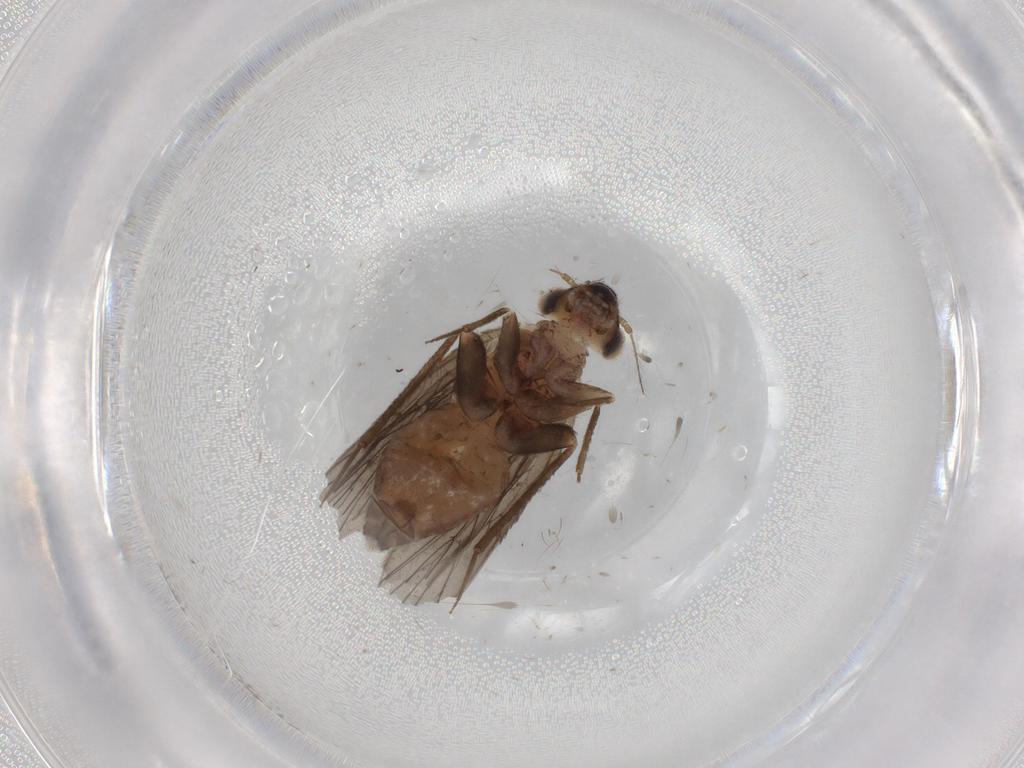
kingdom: Animalia
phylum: Arthropoda
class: Insecta
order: Psocodea
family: Lepidopsocidae
